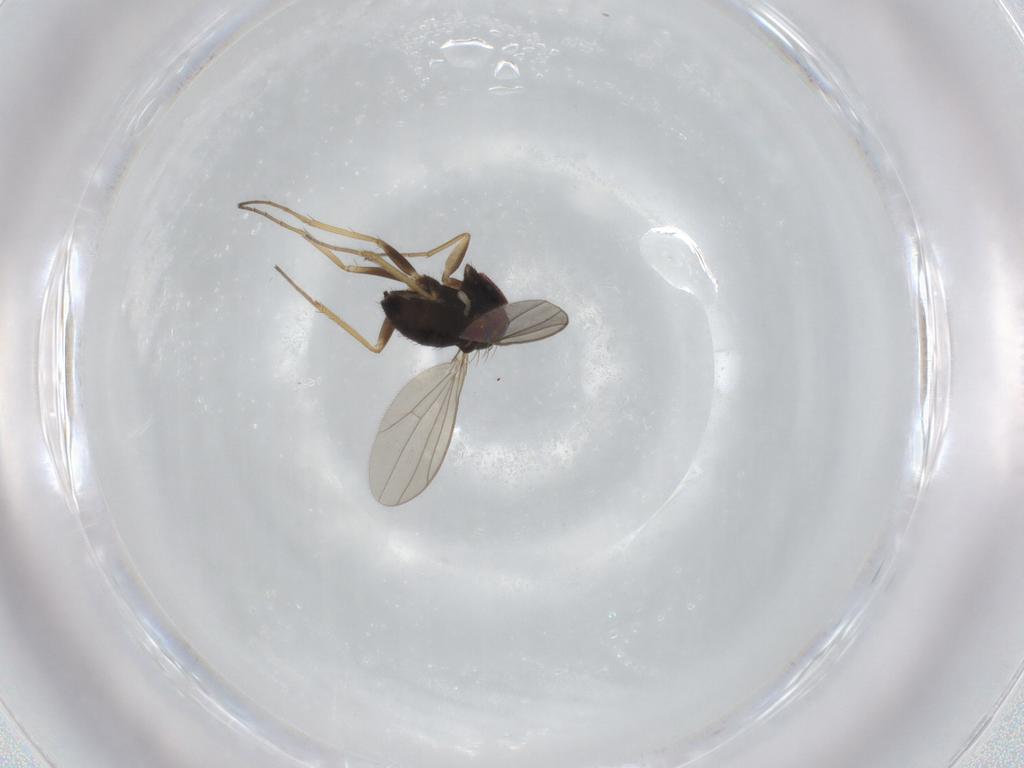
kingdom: Animalia
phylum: Arthropoda
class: Insecta
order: Diptera
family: Dolichopodidae
